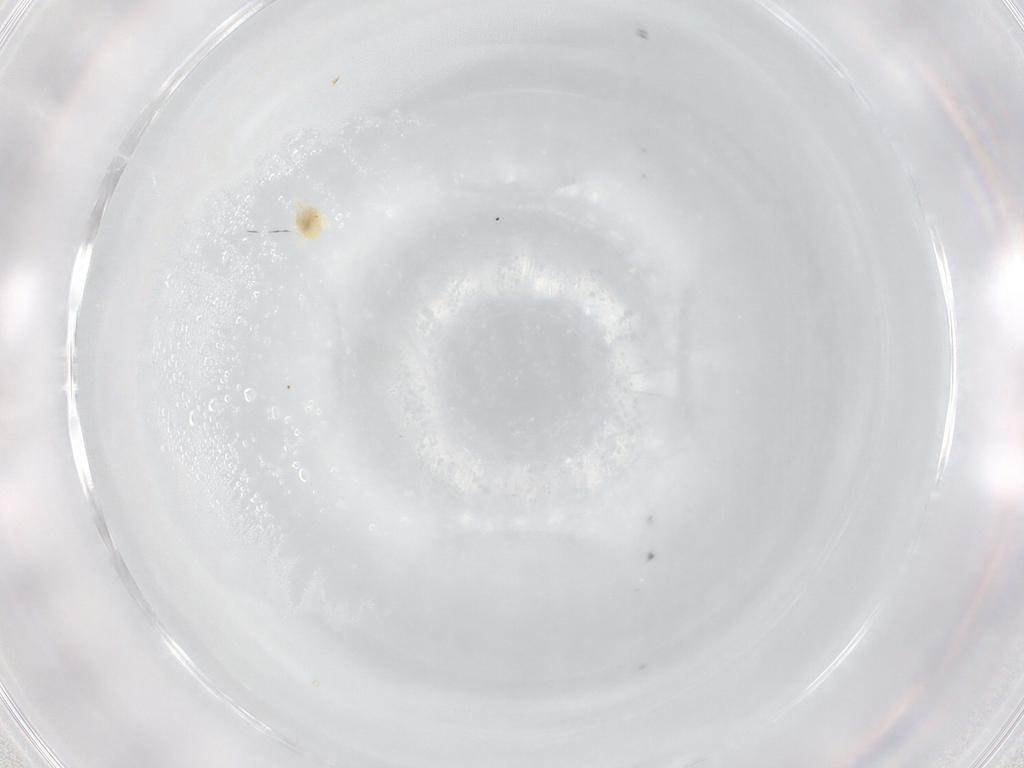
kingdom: Animalia
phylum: Arthropoda
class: Arachnida
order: Trombidiformes
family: Eupodidae
